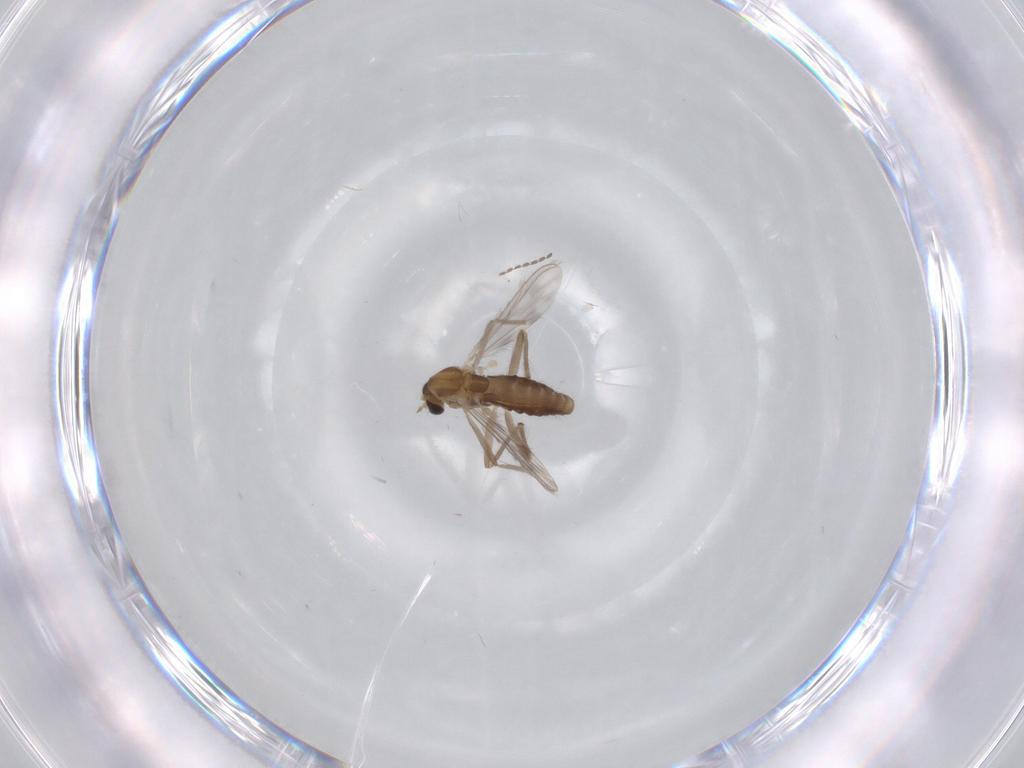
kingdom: Animalia
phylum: Arthropoda
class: Insecta
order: Diptera
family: Chironomidae
